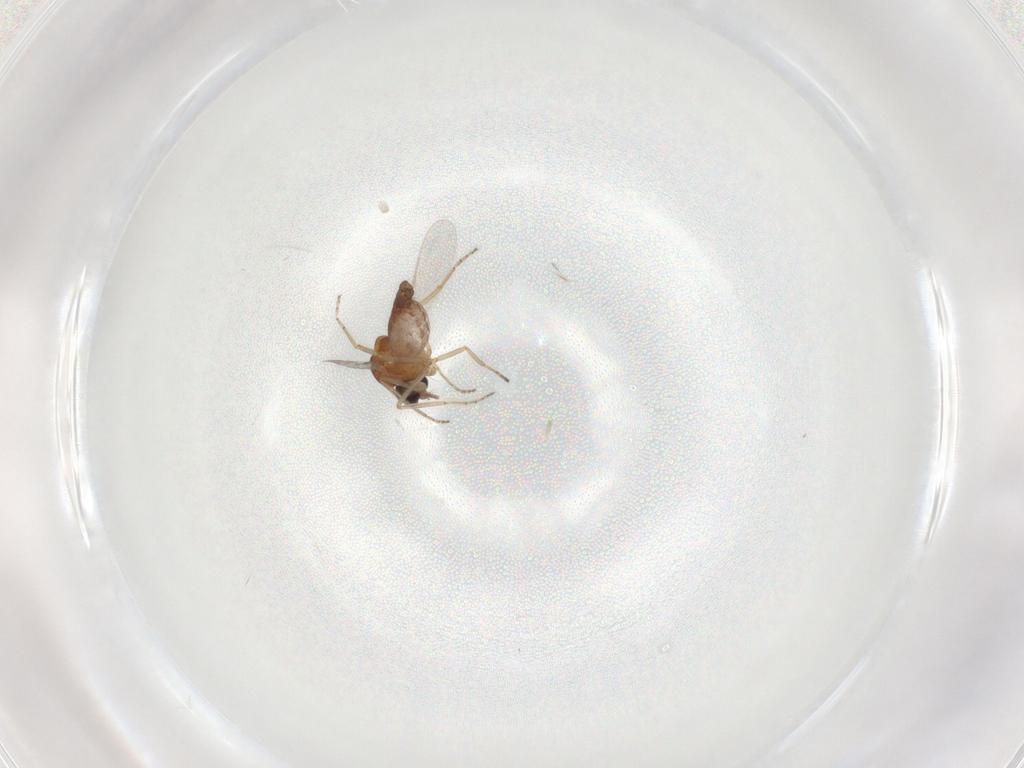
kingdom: Animalia
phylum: Arthropoda
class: Insecta
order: Diptera
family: Ceratopogonidae
